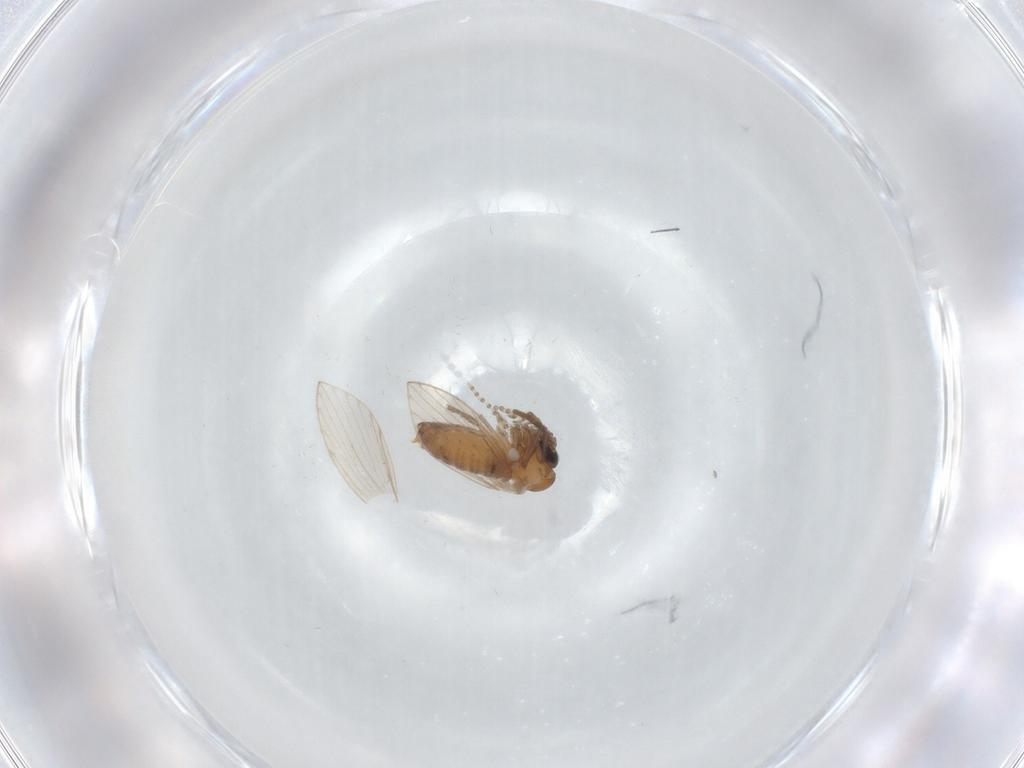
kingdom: Animalia
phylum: Arthropoda
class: Insecta
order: Diptera
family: Psychodidae
